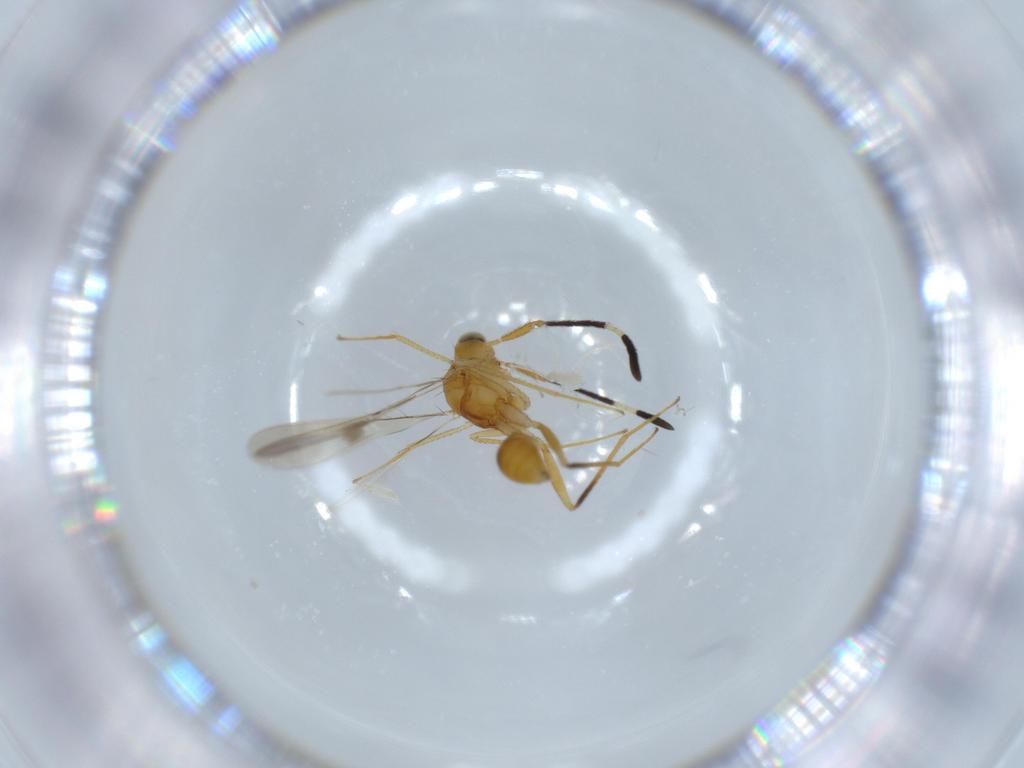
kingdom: Animalia
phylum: Arthropoda
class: Insecta
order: Hymenoptera
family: Mymaridae
